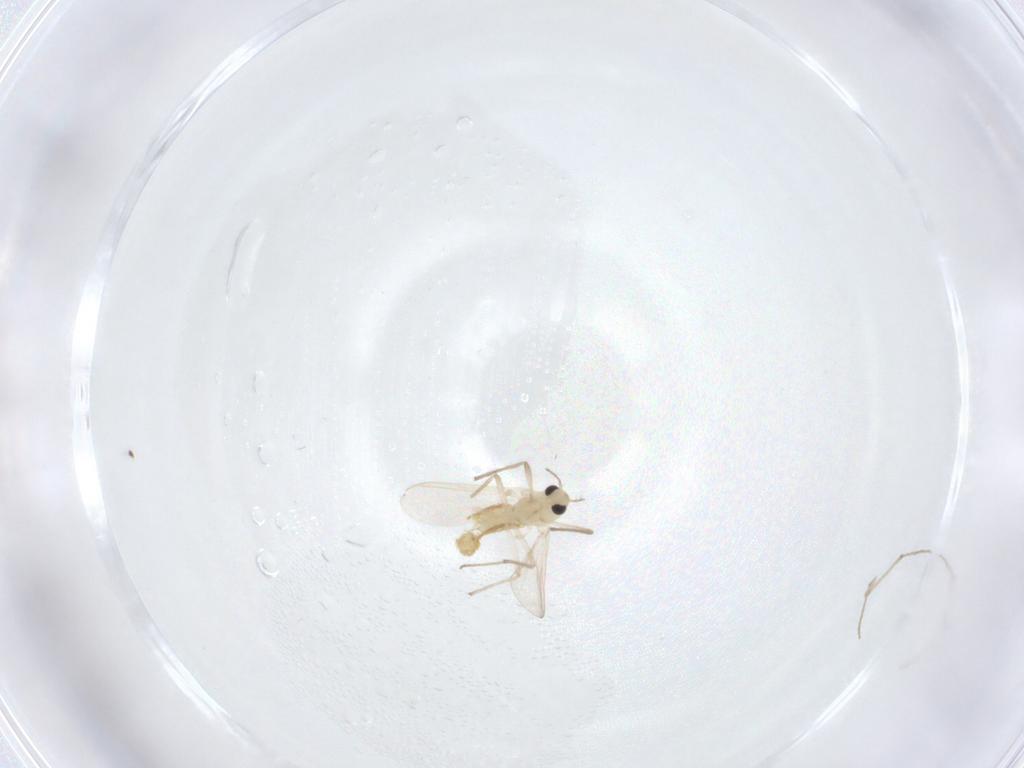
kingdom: Animalia
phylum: Arthropoda
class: Insecta
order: Diptera
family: Chironomidae
